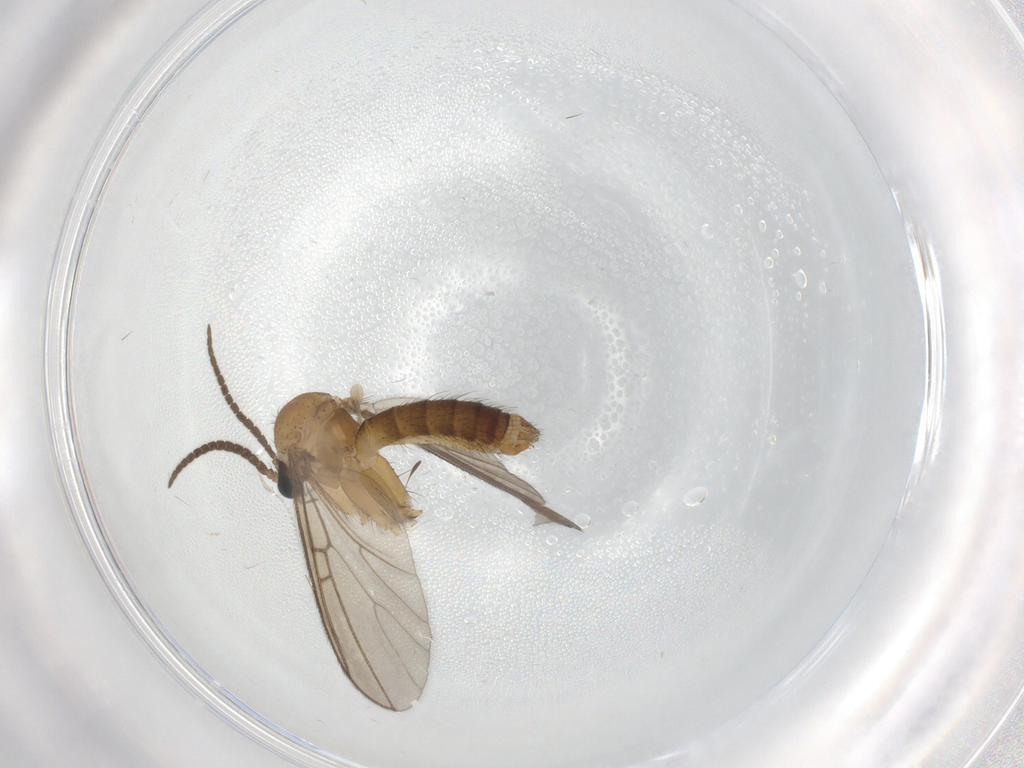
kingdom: Animalia
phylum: Arthropoda
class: Insecta
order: Diptera
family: Mycetophilidae
